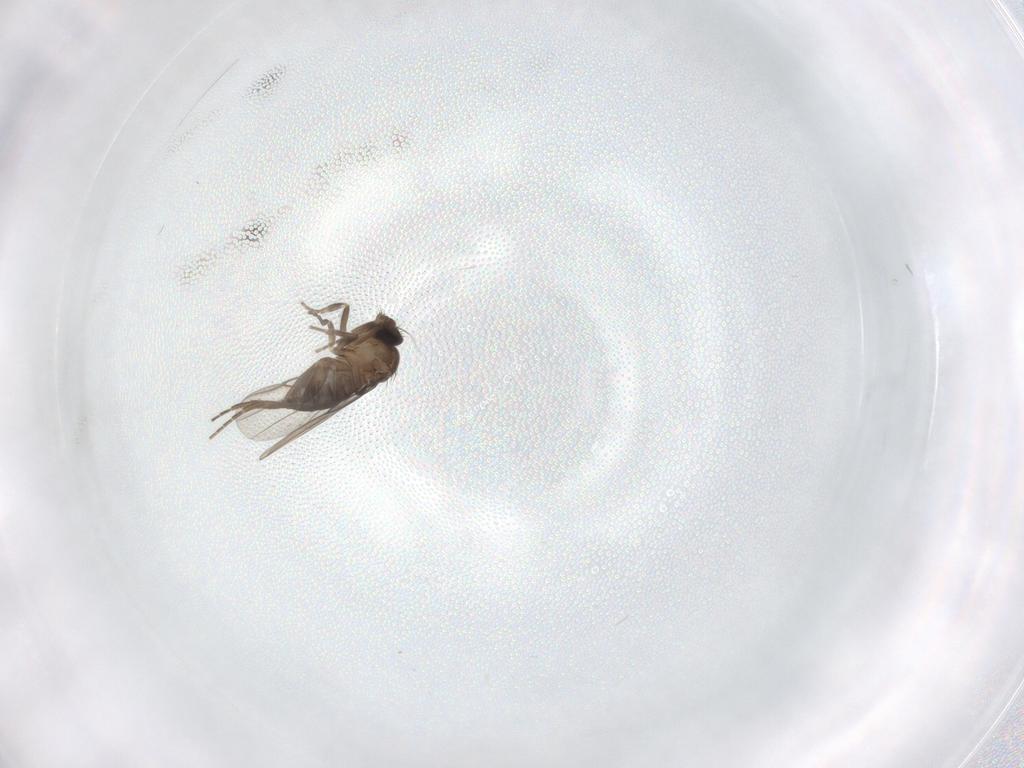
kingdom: Animalia
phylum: Arthropoda
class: Insecta
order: Diptera
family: Phoridae
